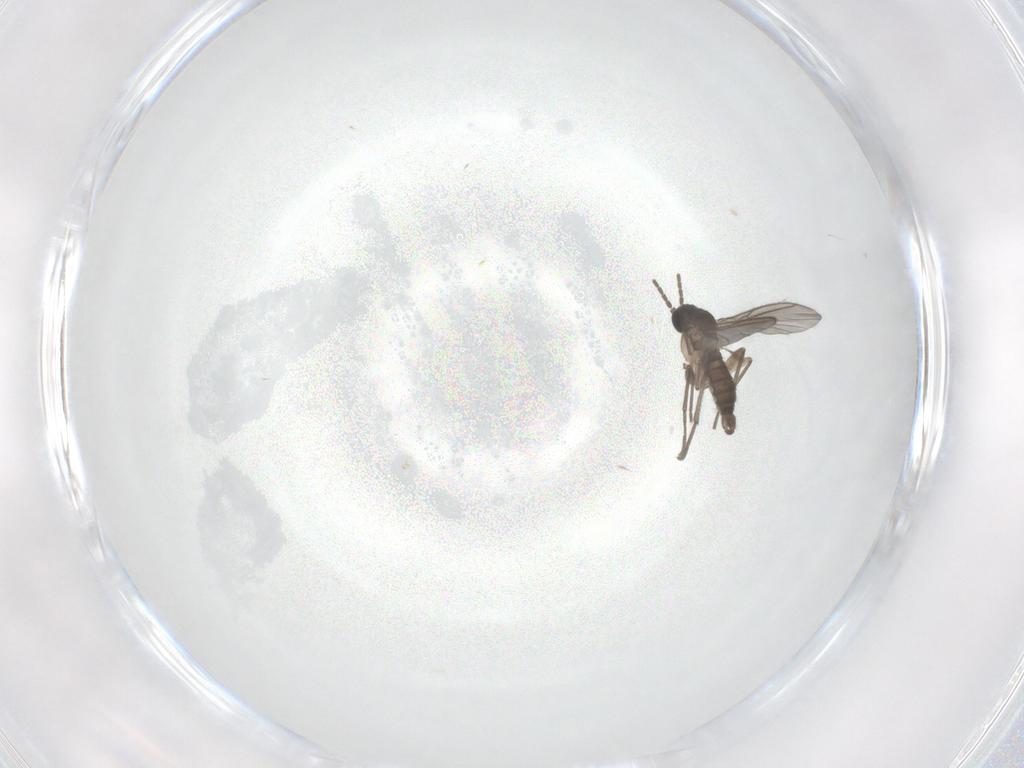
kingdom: Animalia
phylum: Arthropoda
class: Insecta
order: Diptera
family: Sciaridae
